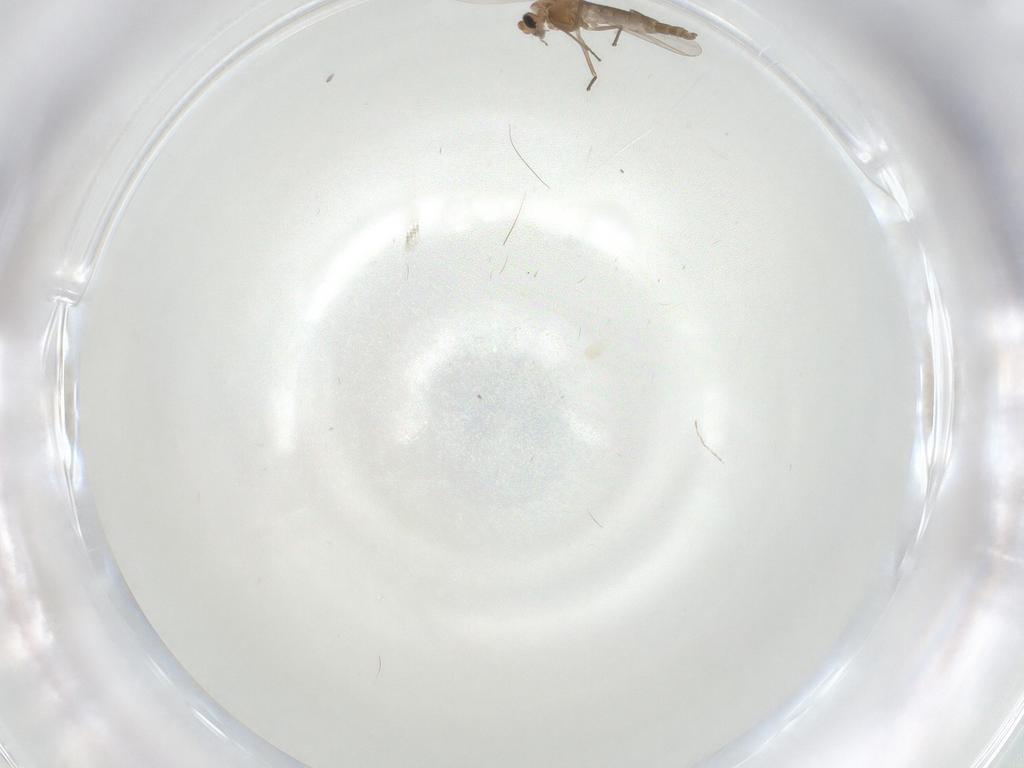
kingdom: Animalia
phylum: Arthropoda
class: Insecta
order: Diptera
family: Chironomidae
